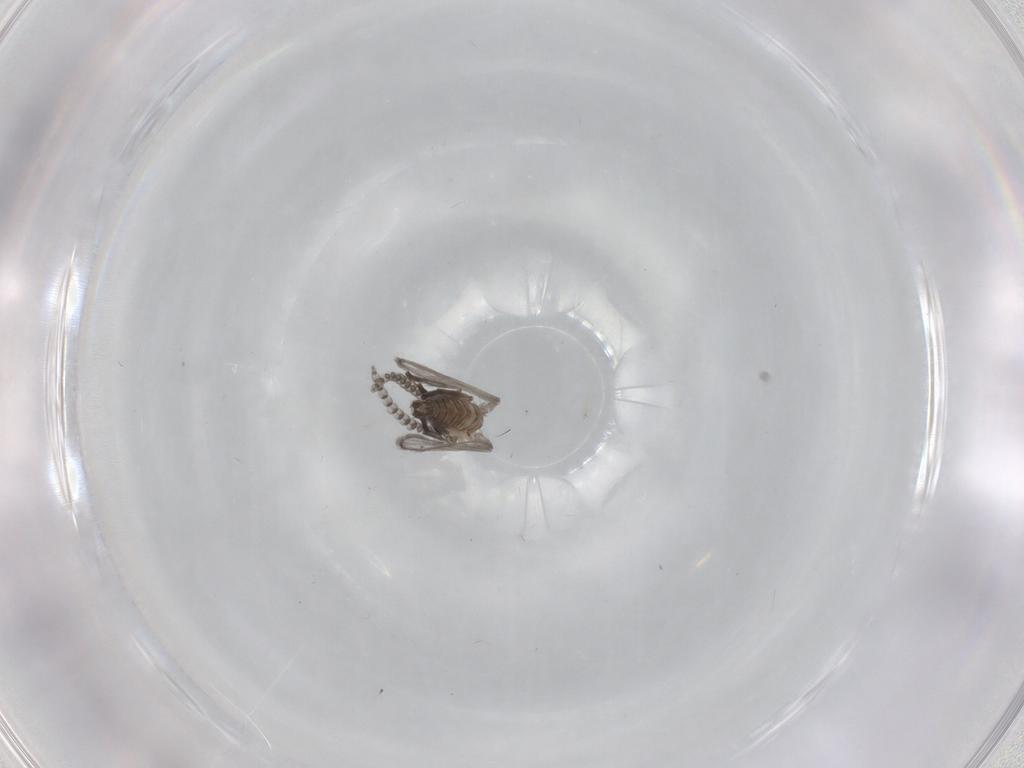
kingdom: Animalia
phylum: Arthropoda
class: Insecta
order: Diptera
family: Psychodidae
